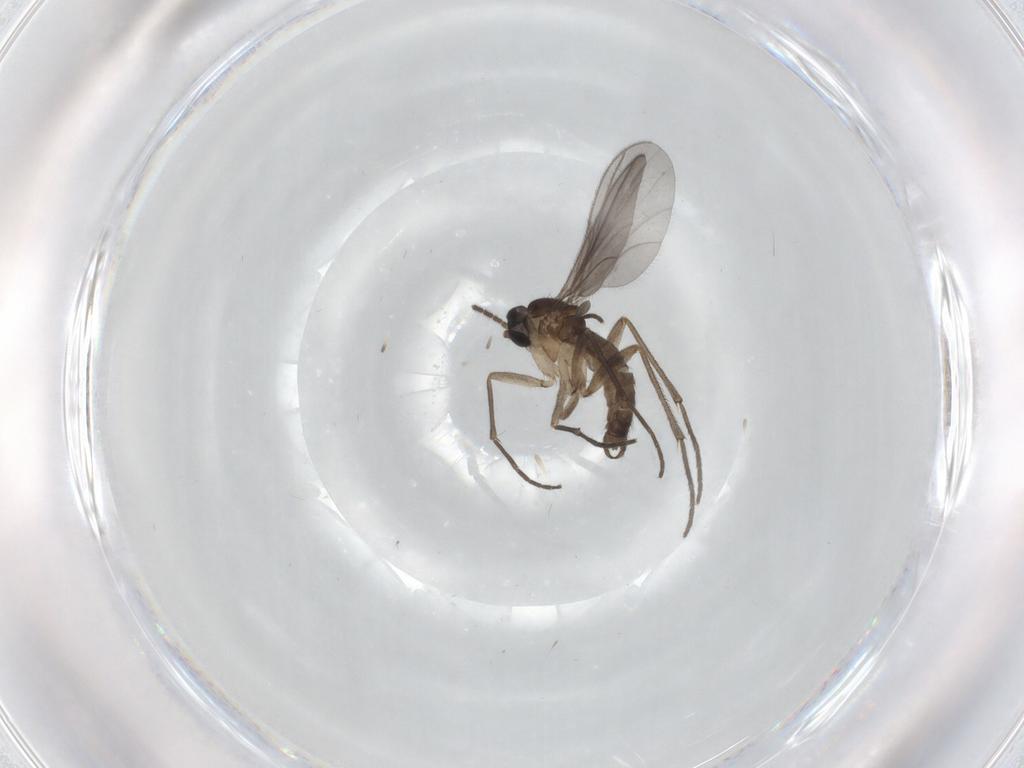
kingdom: Animalia
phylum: Arthropoda
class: Insecta
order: Diptera
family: Sciaridae
